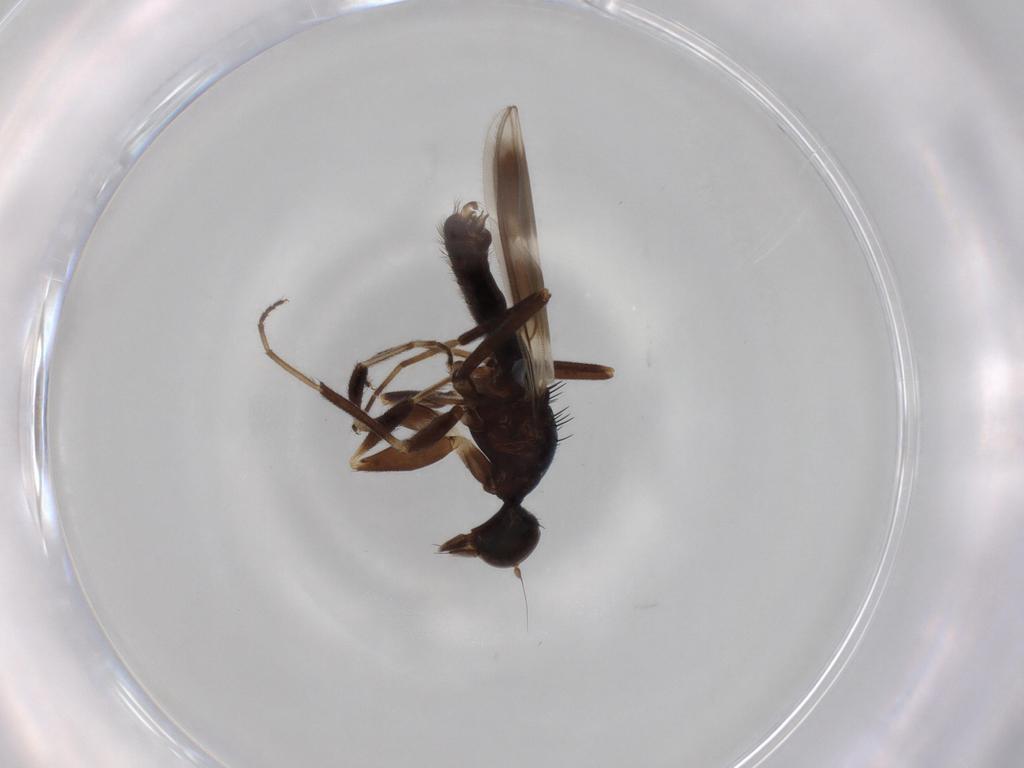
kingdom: Animalia
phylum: Arthropoda
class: Insecta
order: Diptera
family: Hybotidae
